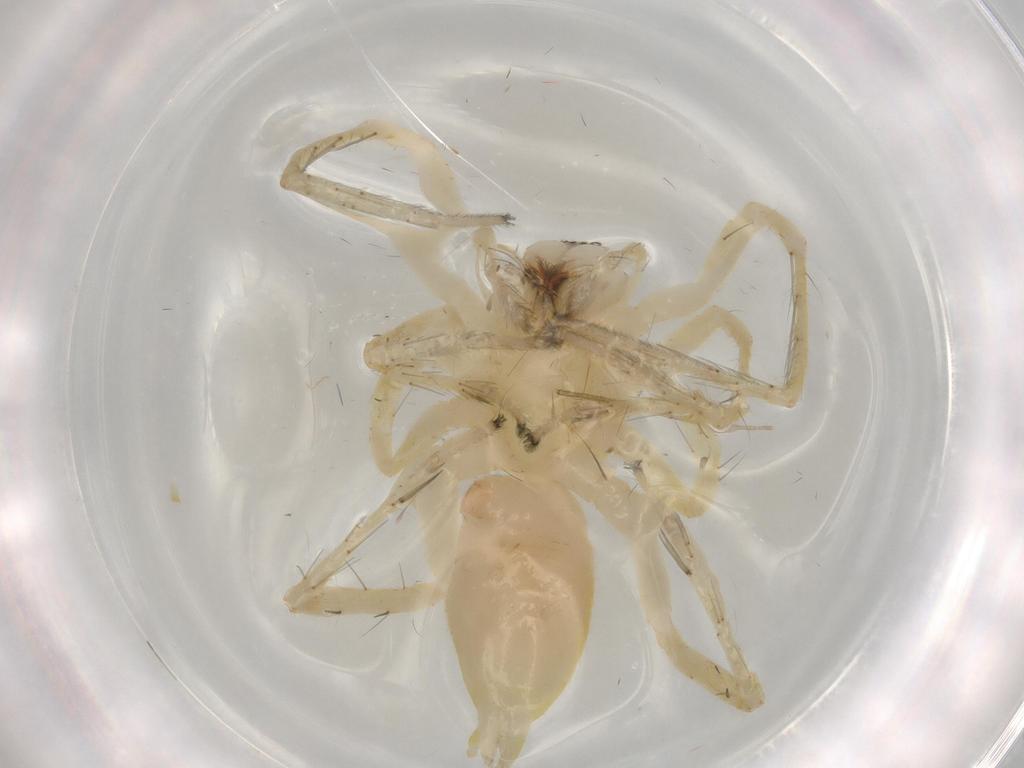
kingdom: Animalia
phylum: Arthropoda
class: Arachnida
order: Araneae
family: Anyphaenidae
